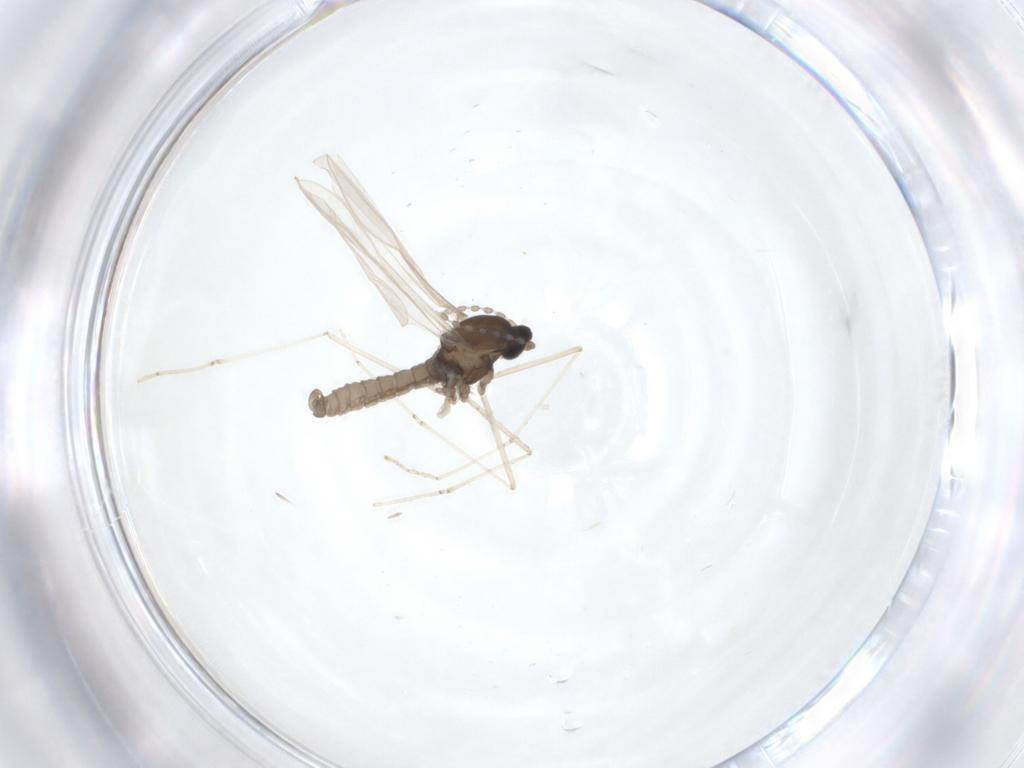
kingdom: Animalia
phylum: Arthropoda
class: Insecta
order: Diptera
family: Cecidomyiidae
